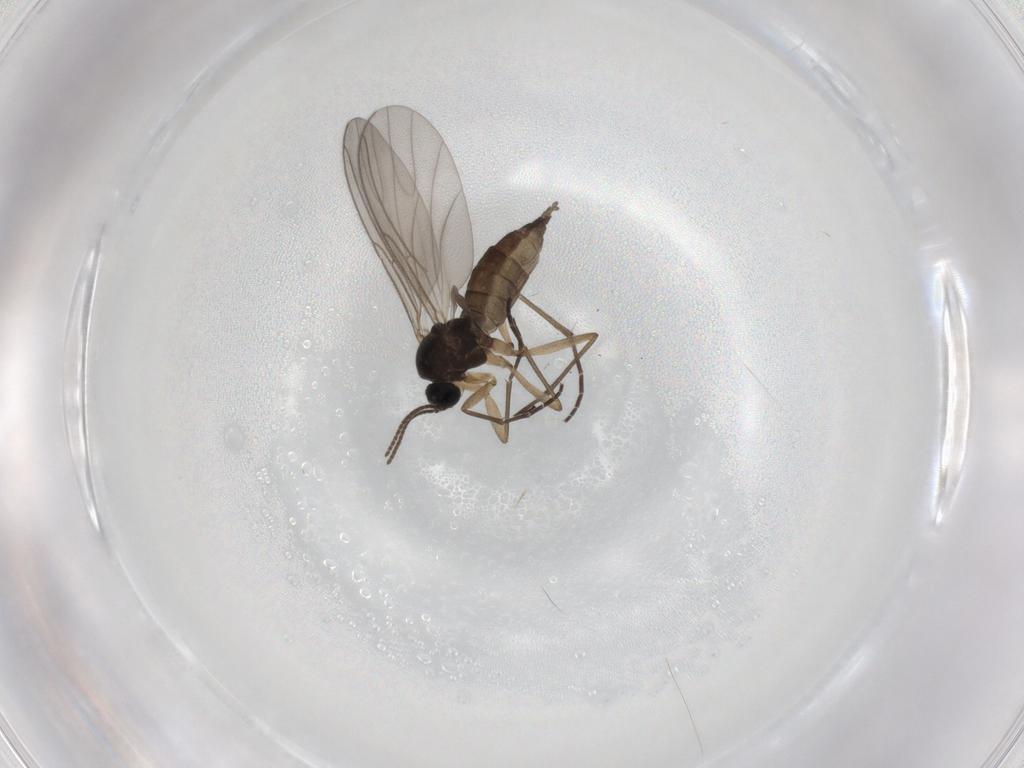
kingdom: Animalia
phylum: Arthropoda
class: Insecta
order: Diptera
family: Sciaridae
